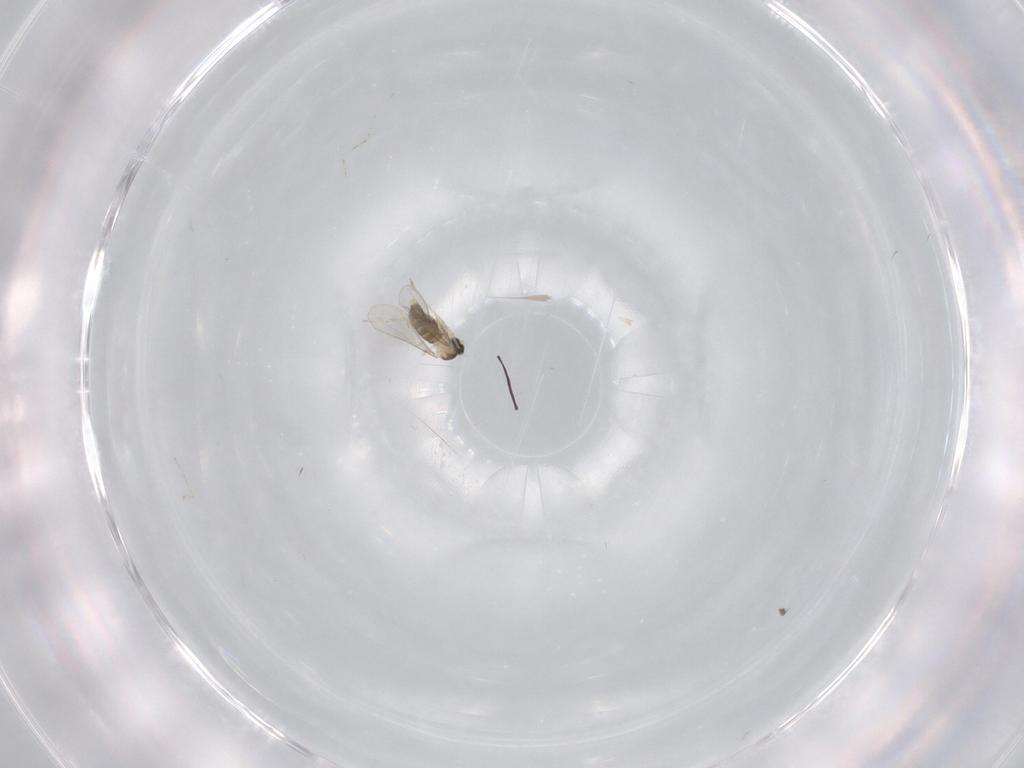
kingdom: Animalia
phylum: Arthropoda
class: Insecta
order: Diptera
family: Cecidomyiidae
